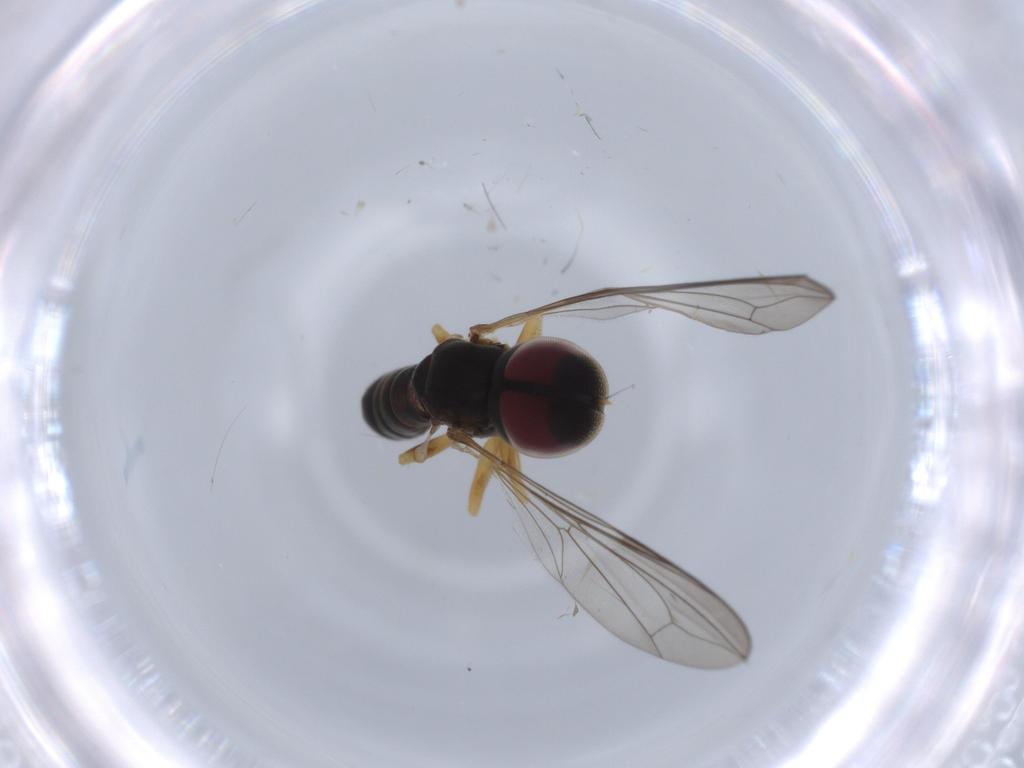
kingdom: Animalia
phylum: Arthropoda
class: Insecta
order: Diptera
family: Pipunculidae
